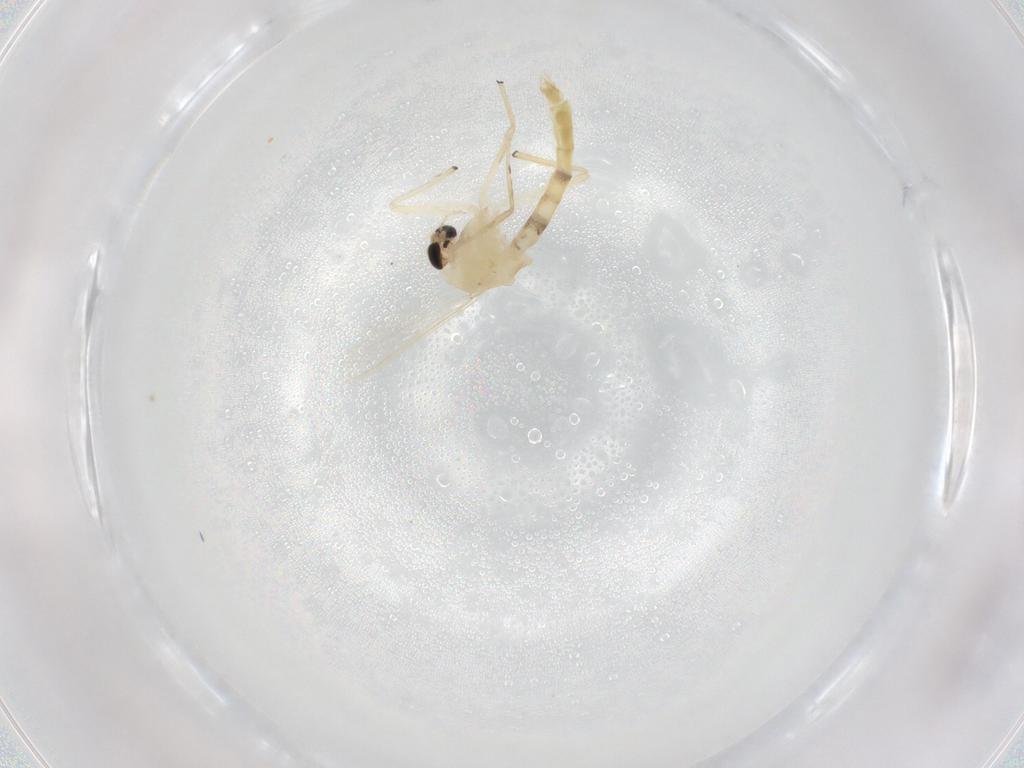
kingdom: Animalia
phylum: Arthropoda
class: Insecta
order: Diptera
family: Chironomidae
